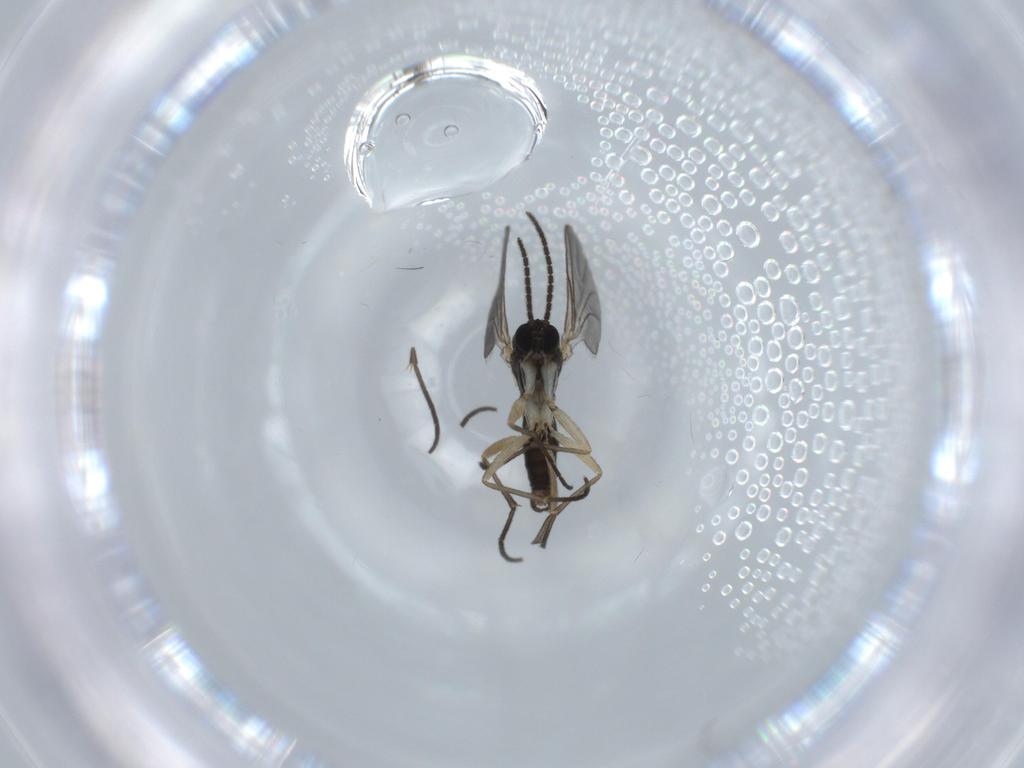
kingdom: Animalia
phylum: Arthropoda
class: Insecta
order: Diptera
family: Sciaridae
